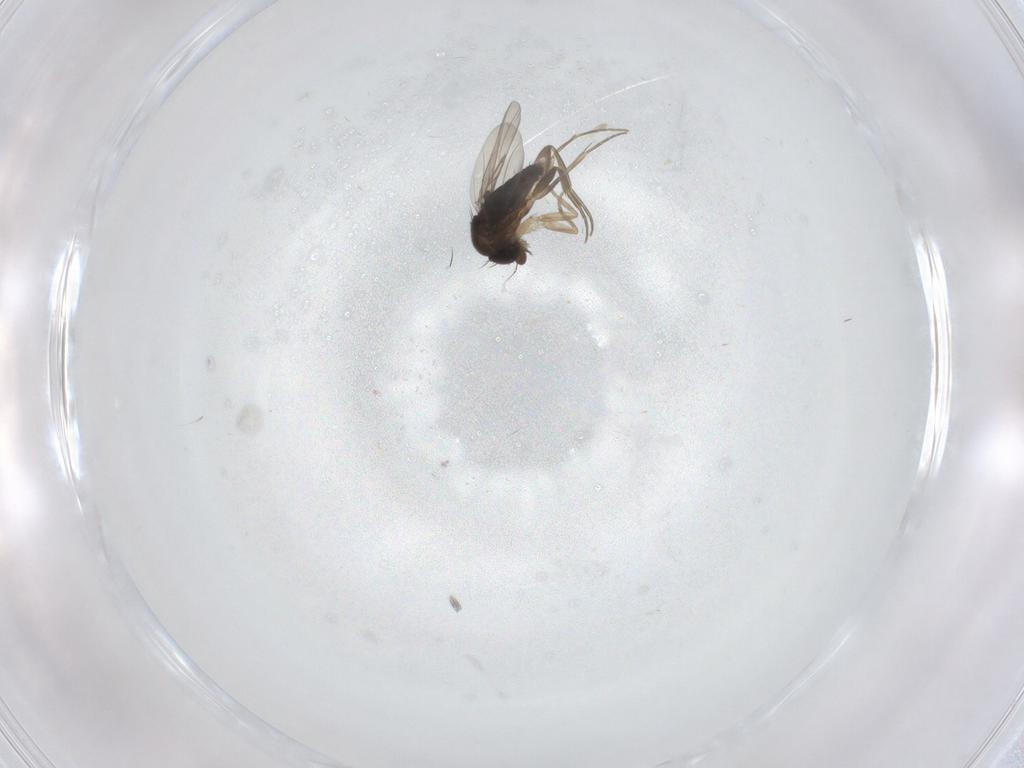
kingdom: Animalia
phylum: Arthropoda
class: Insecta
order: Diptera
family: Phoridae
